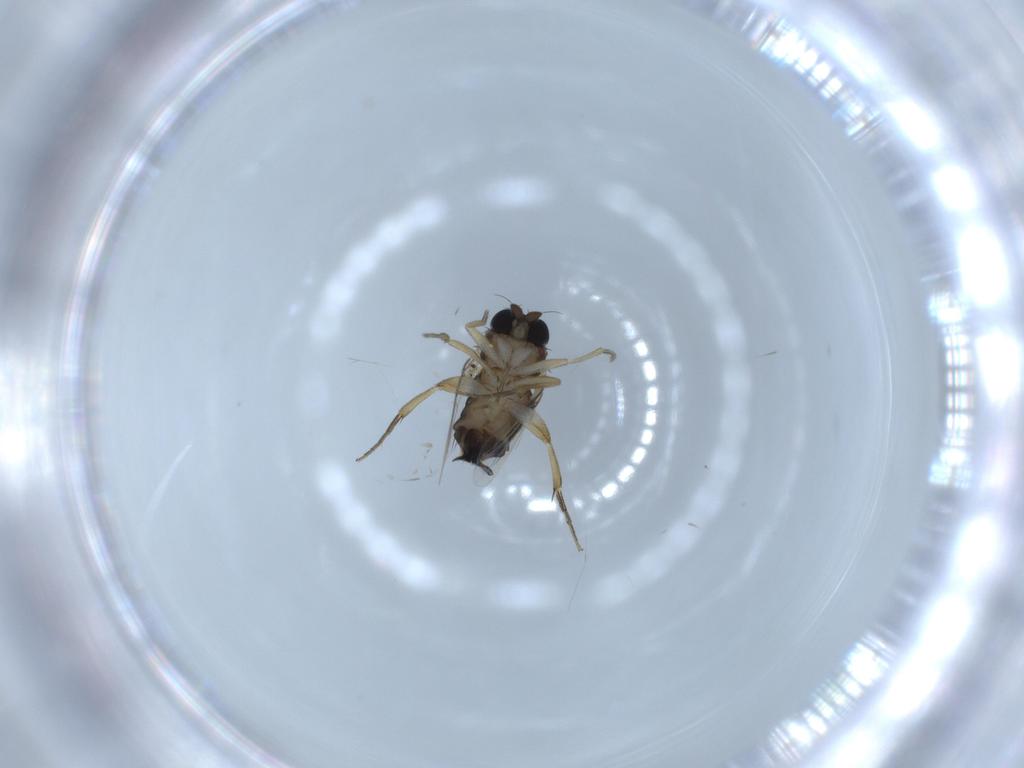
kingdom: Animalia
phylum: Arthropoda
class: Insecta
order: Diptera
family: Phoridae
